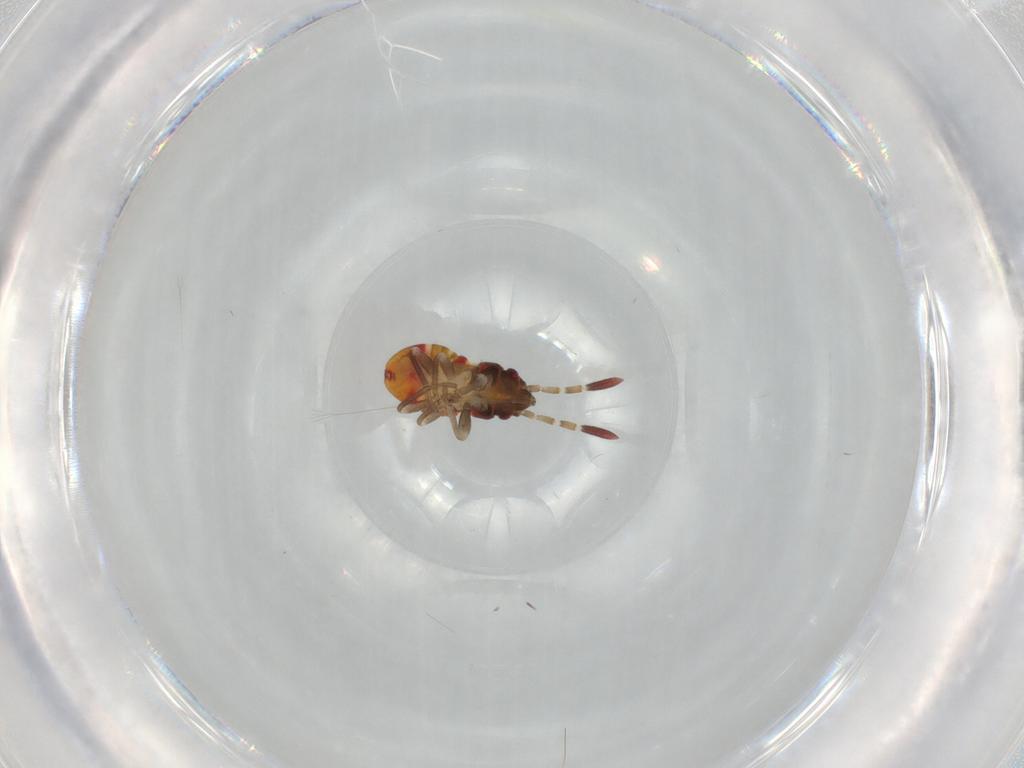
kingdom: Animalia
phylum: Arthropoda
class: Insecta
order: Hemiptera
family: Rhyparochromidae
